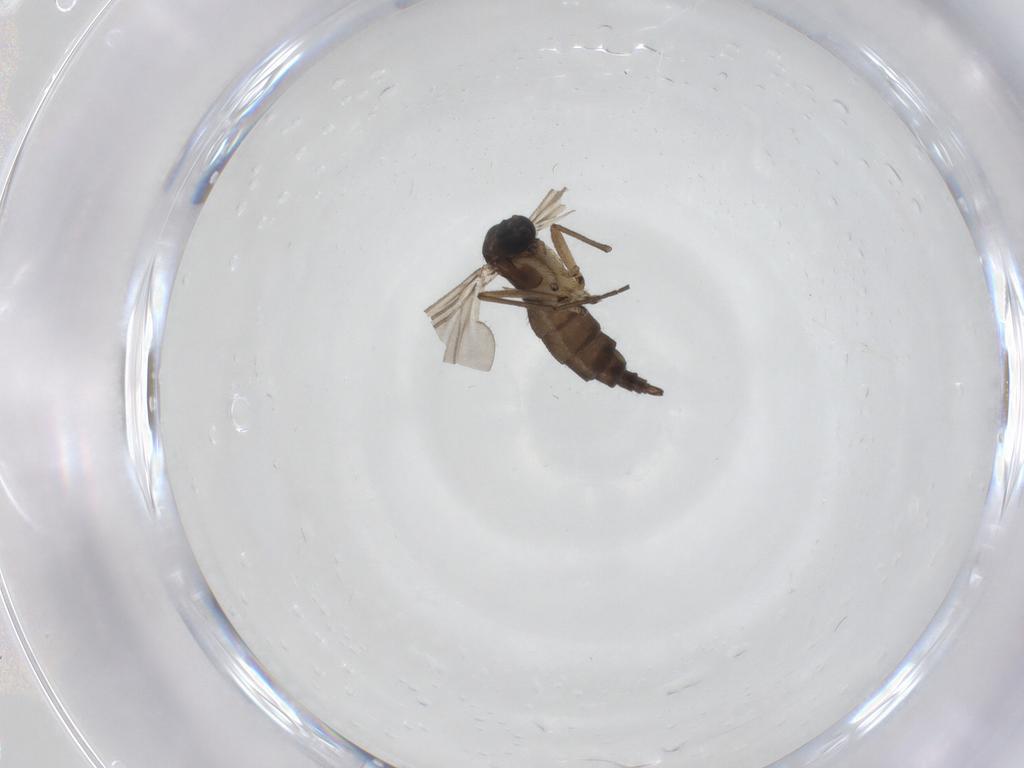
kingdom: Animalia
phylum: Arthropoda
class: Insecta
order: Diptera
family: Sciaridae
